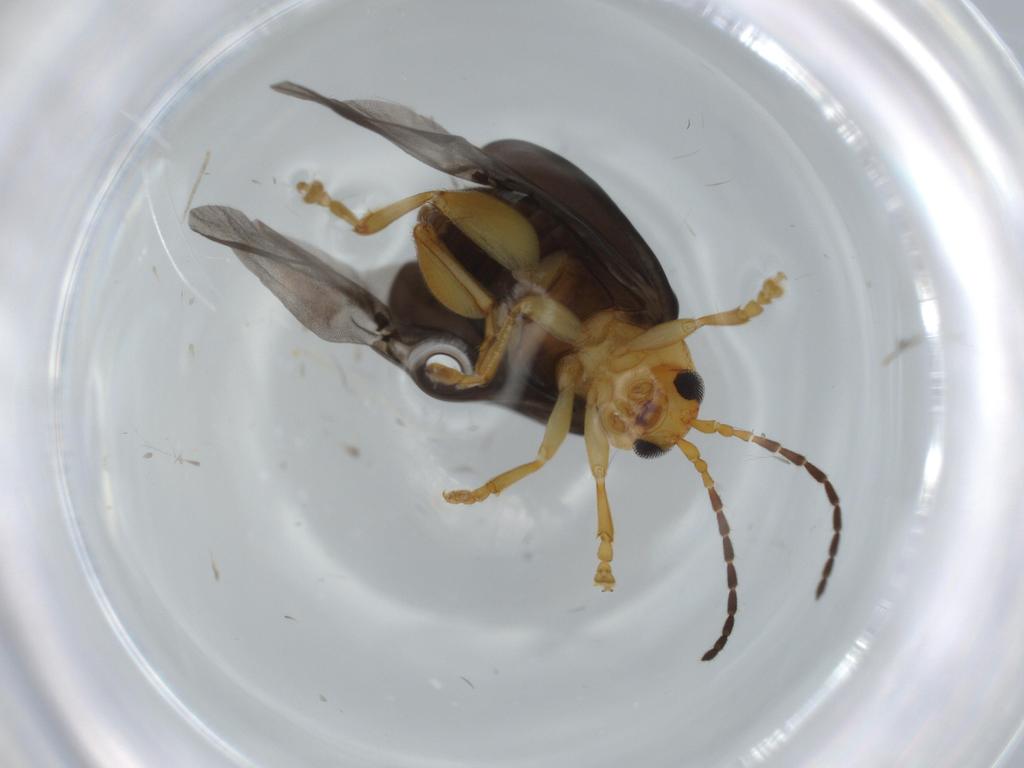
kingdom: Animalia
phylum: Arthropoda
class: Insecta
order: Coleoptera
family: Chrysomelidae
